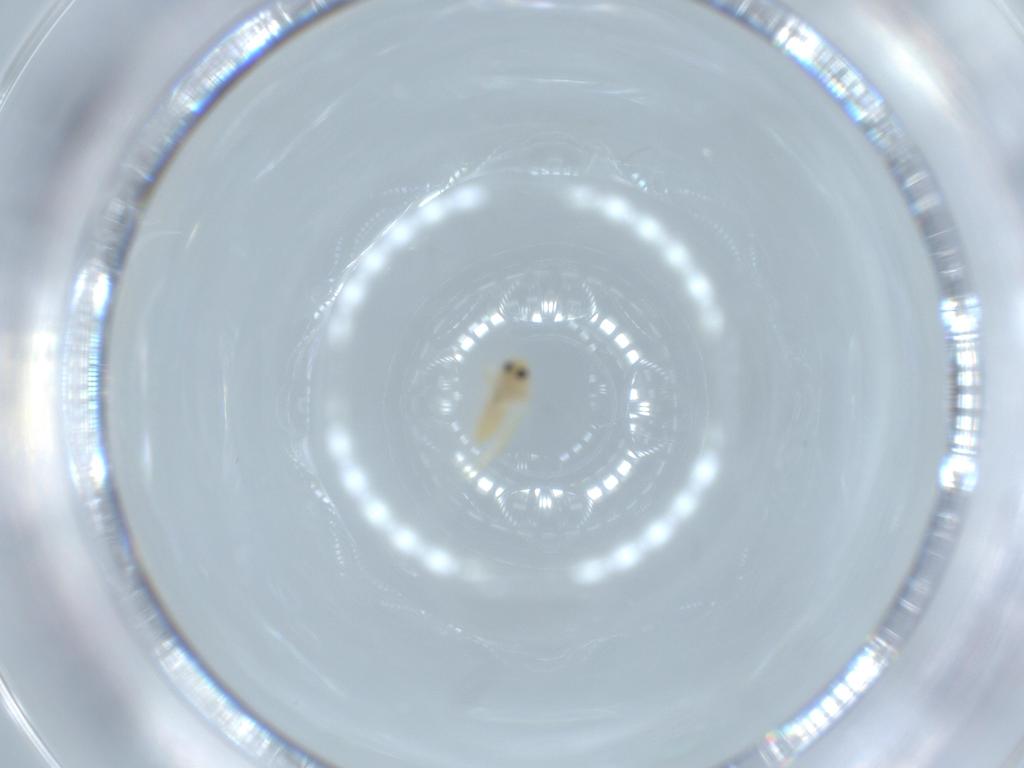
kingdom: Animalia
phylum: Arthropoda
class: Insecta
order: Hemiptera
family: Aleyrodidae
